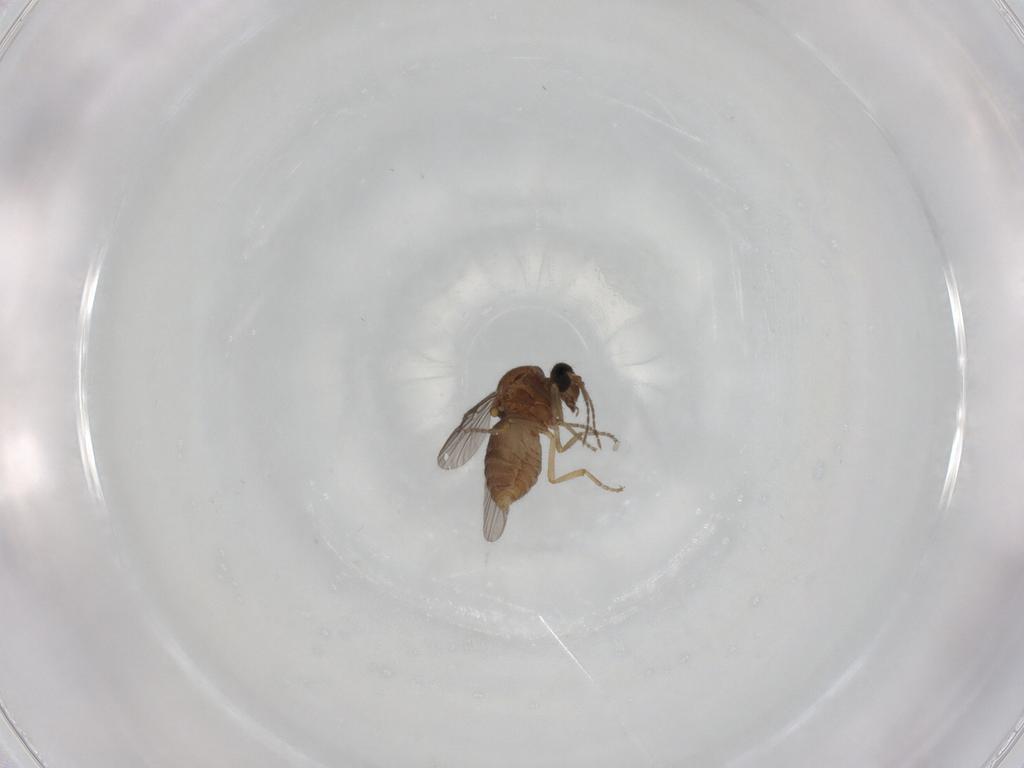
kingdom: Animalia
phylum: Arthropoda
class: Insecta
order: Diptera
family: Ceratopogonidae
